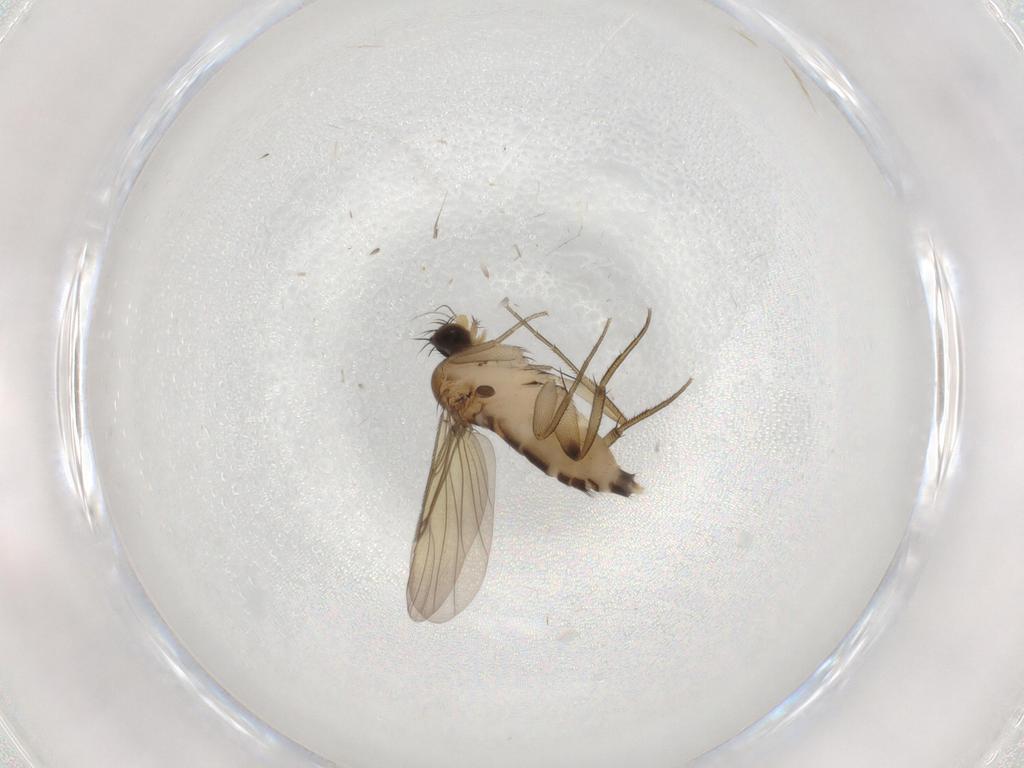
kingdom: Animalia
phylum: Arthropoda
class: Insecta
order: Diptera
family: Phoridae
